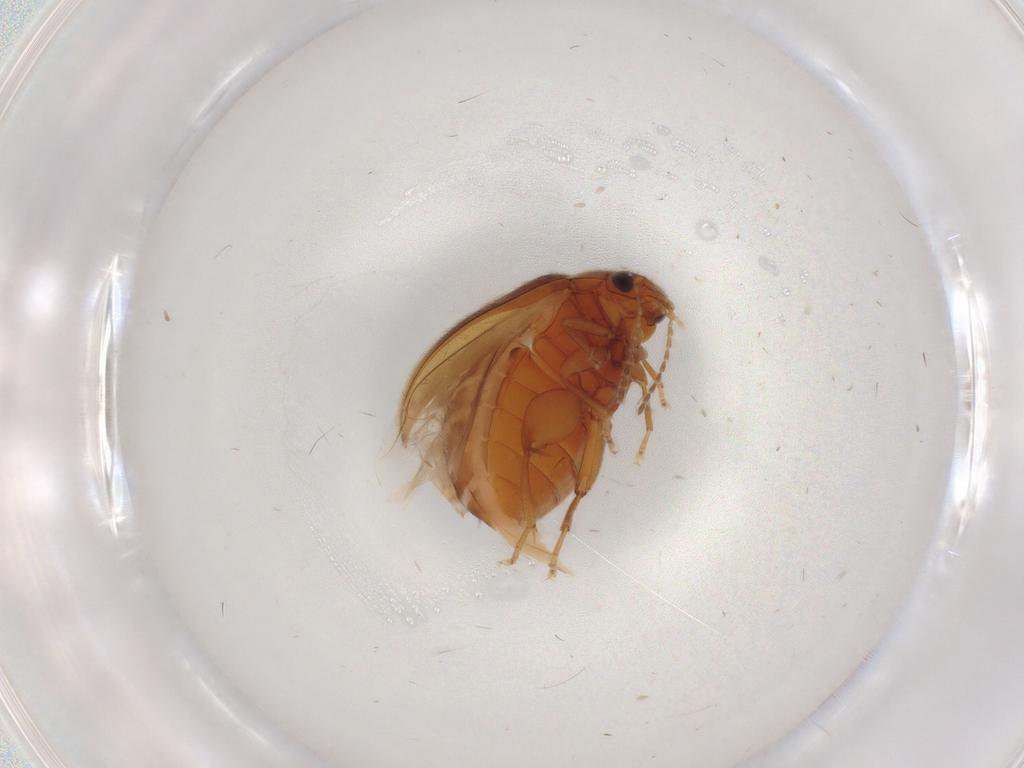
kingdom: Animalia
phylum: Arthropoda
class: Insecta
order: Coleoptera
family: Scirtidae
